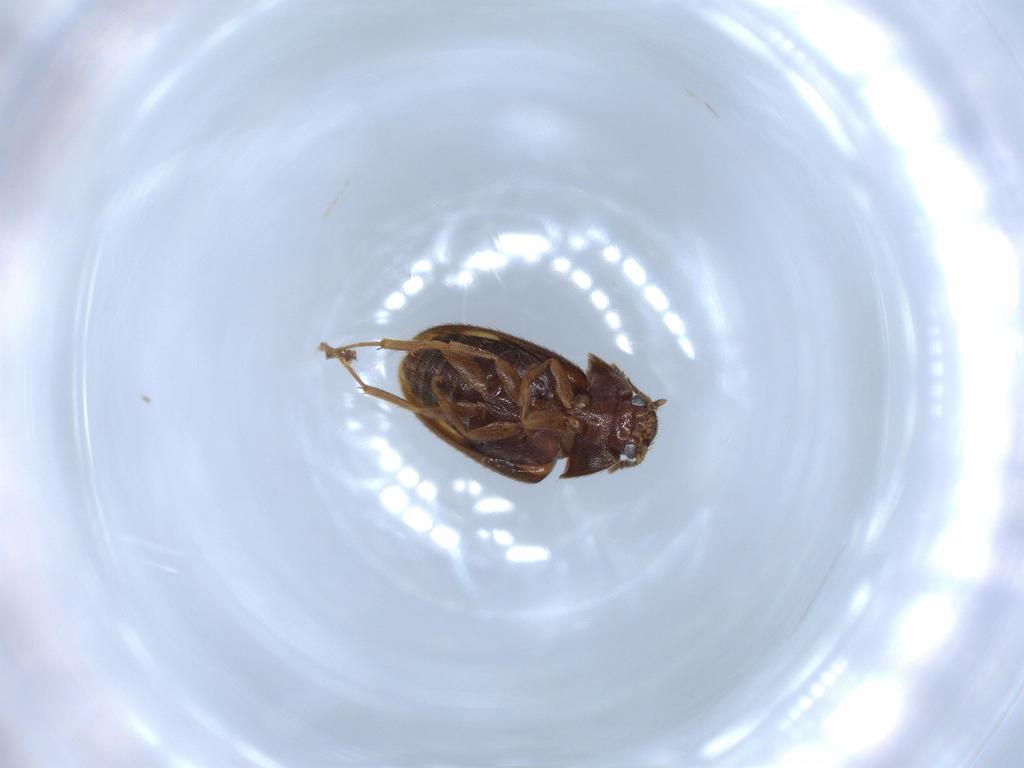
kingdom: Animalia
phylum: Arthropoda
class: Insecta
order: Coleoptera
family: Mycetophagidae
